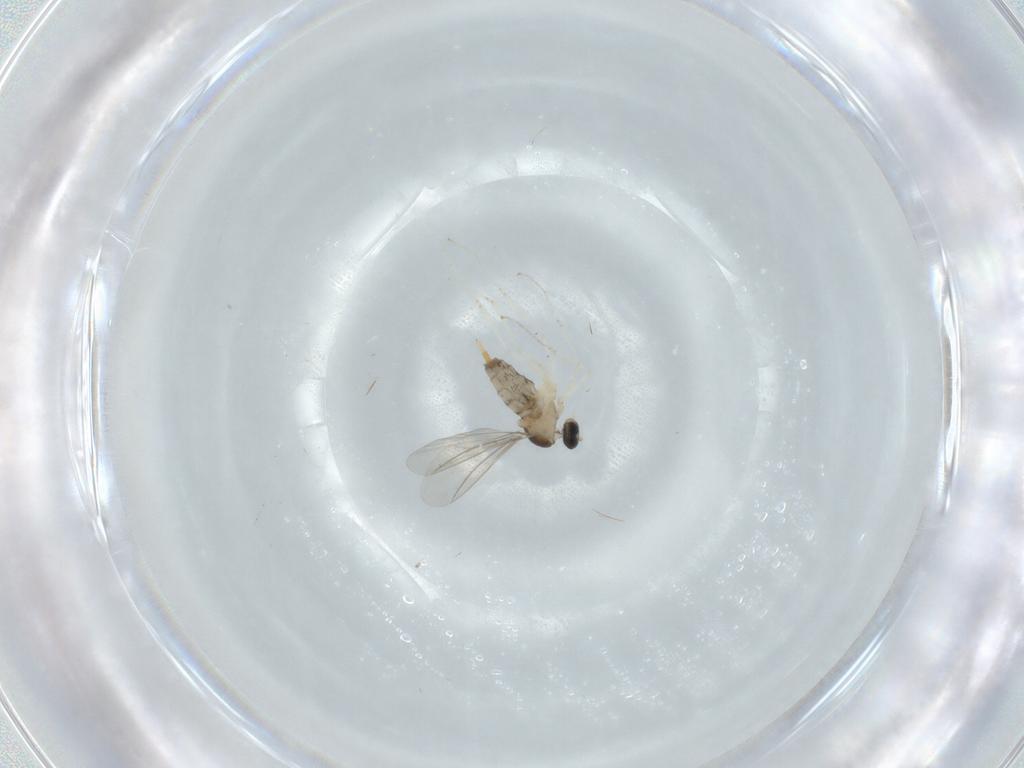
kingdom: Animalia
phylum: Arthropoda
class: Insecta
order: Diptera
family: Cecidomyiidae
